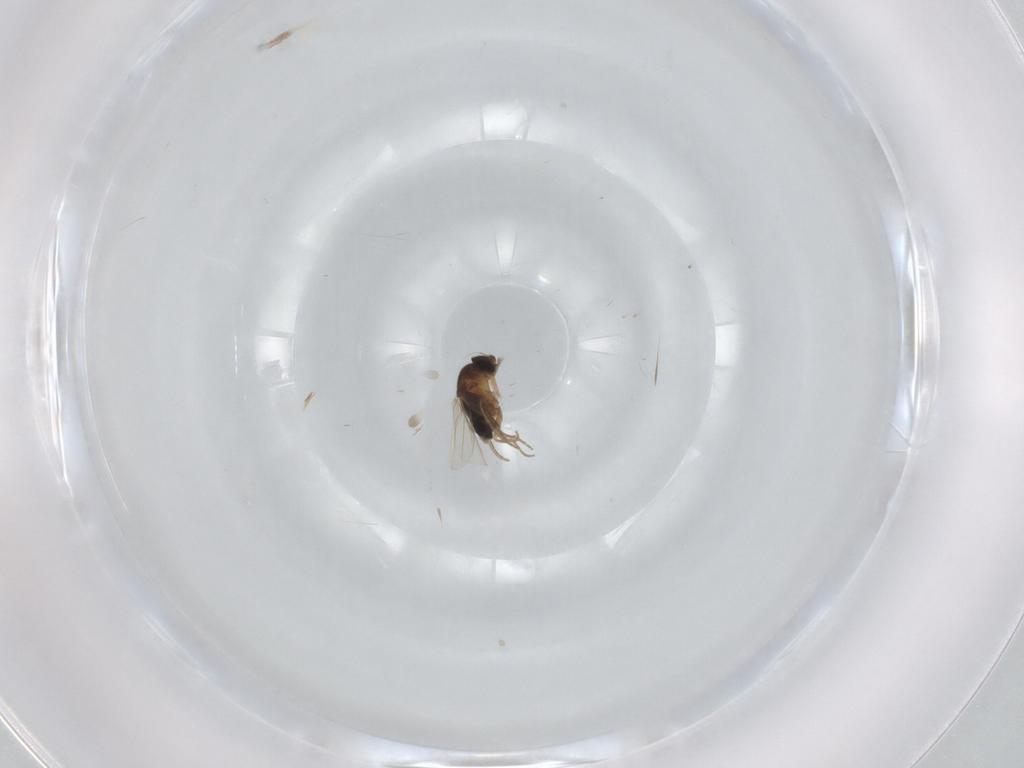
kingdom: Animalia
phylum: Arthropoda
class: Insecta
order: Diptera
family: Phoridae
